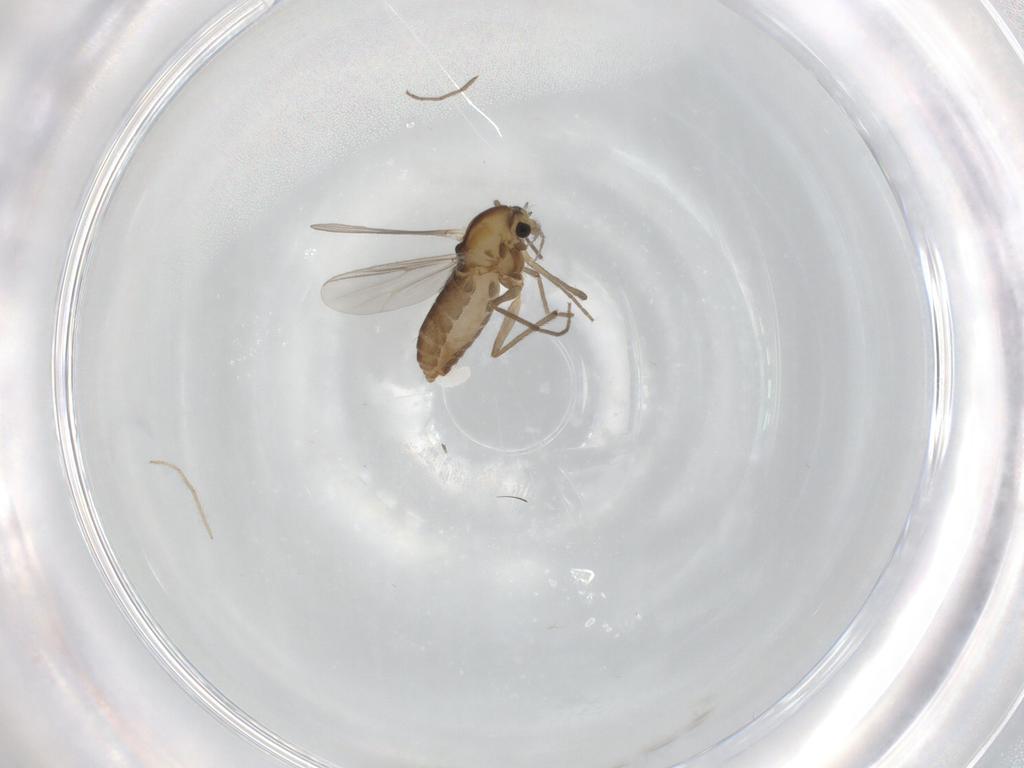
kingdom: Animalia
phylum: Arthropoda
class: Insecta
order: Diptera
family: Chironomidae
